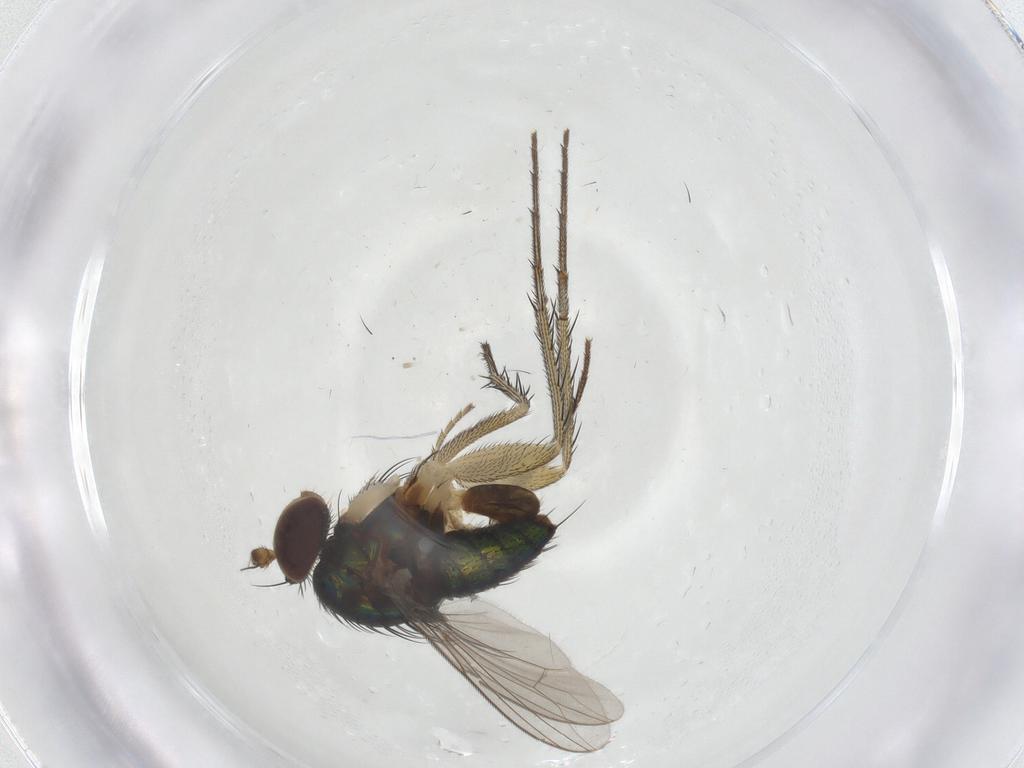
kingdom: Animalia
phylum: Arthropoda
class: Insecta
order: Diptera
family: Dolichopodidae
